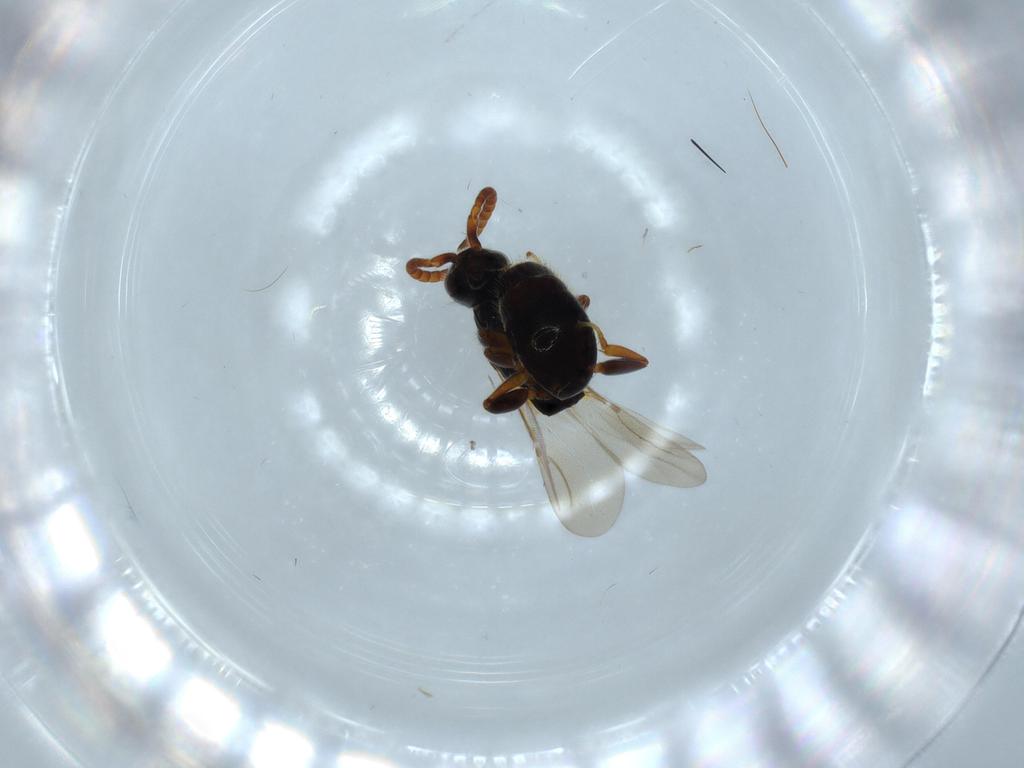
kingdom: Animalia
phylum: Arthropoda
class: Insecta
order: Hymenoptera
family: Bethylidae
